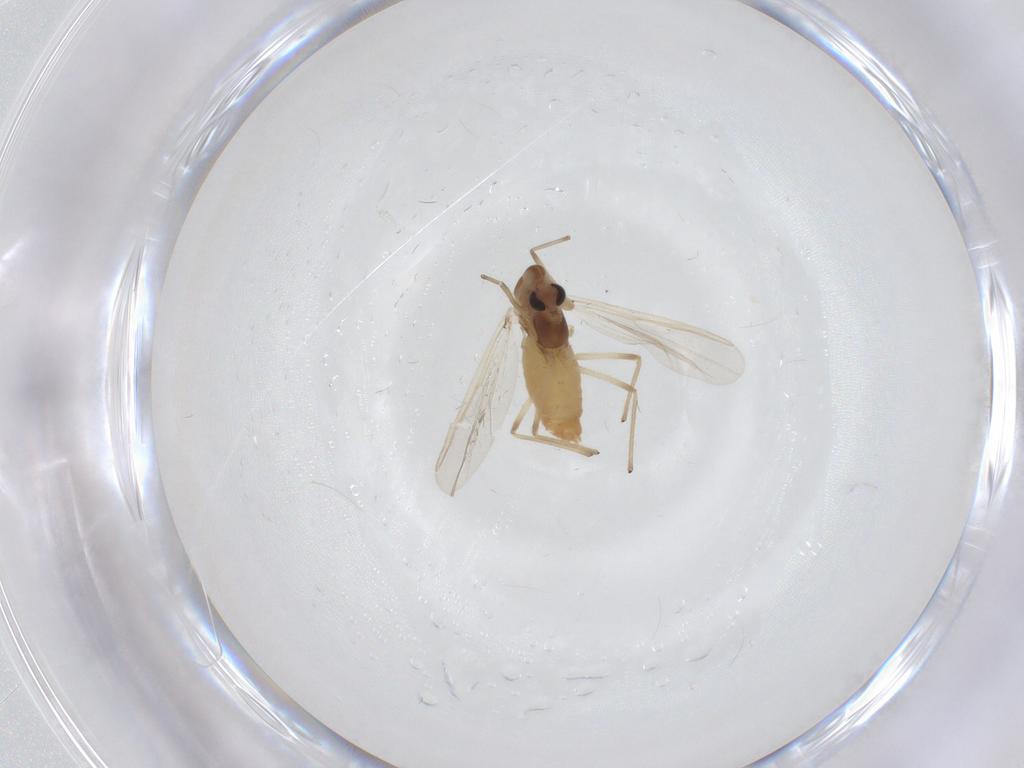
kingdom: Animalia
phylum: Arthropoda
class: Insecta
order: Diptera
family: Chironomidae
